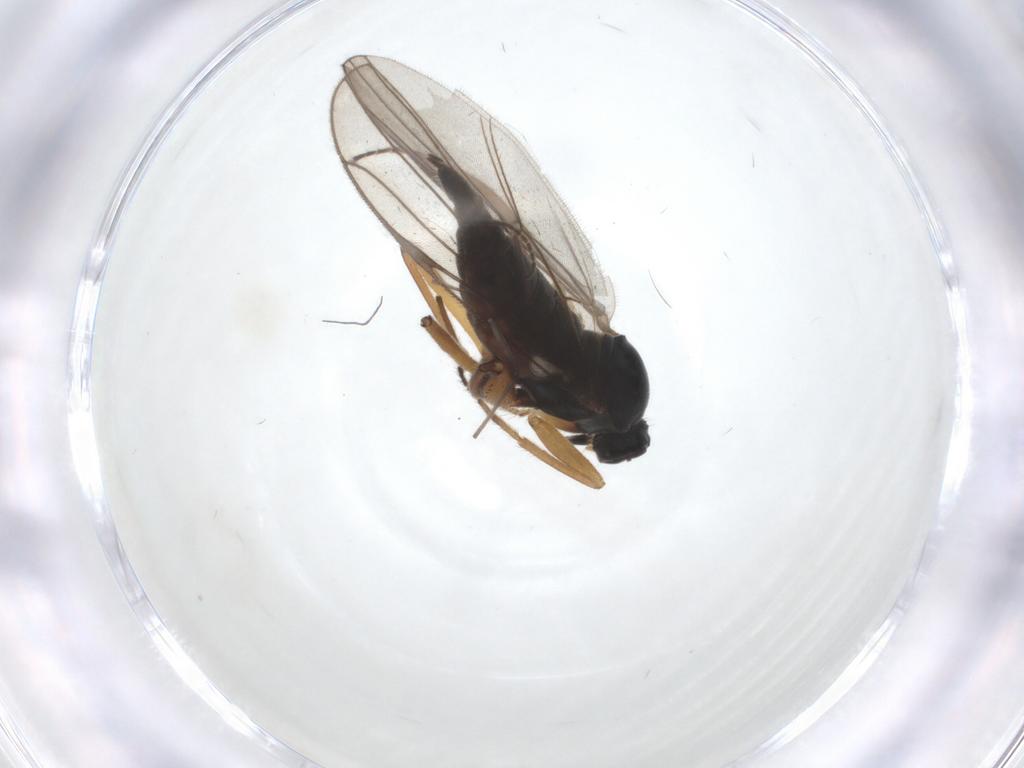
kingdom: Animalia
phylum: Arthropoda
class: Insecta
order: Diptera
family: Hybotidae
